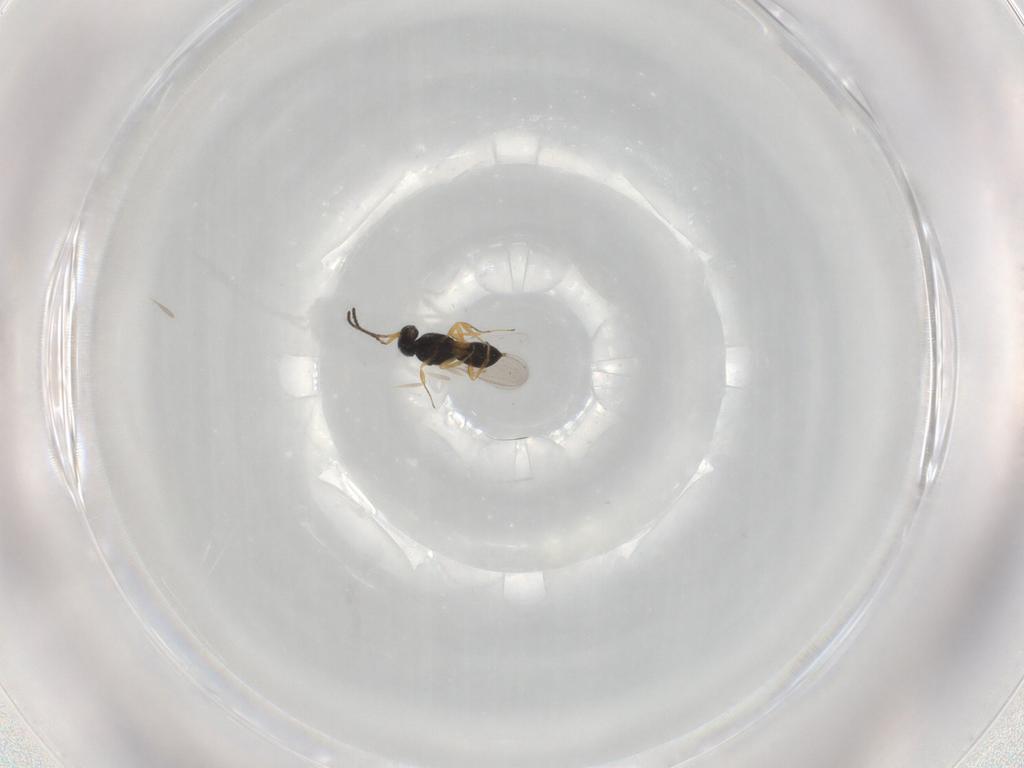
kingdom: Animalia
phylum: Arthropoda
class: Insecta
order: Hymenoptera
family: Scelionidae
